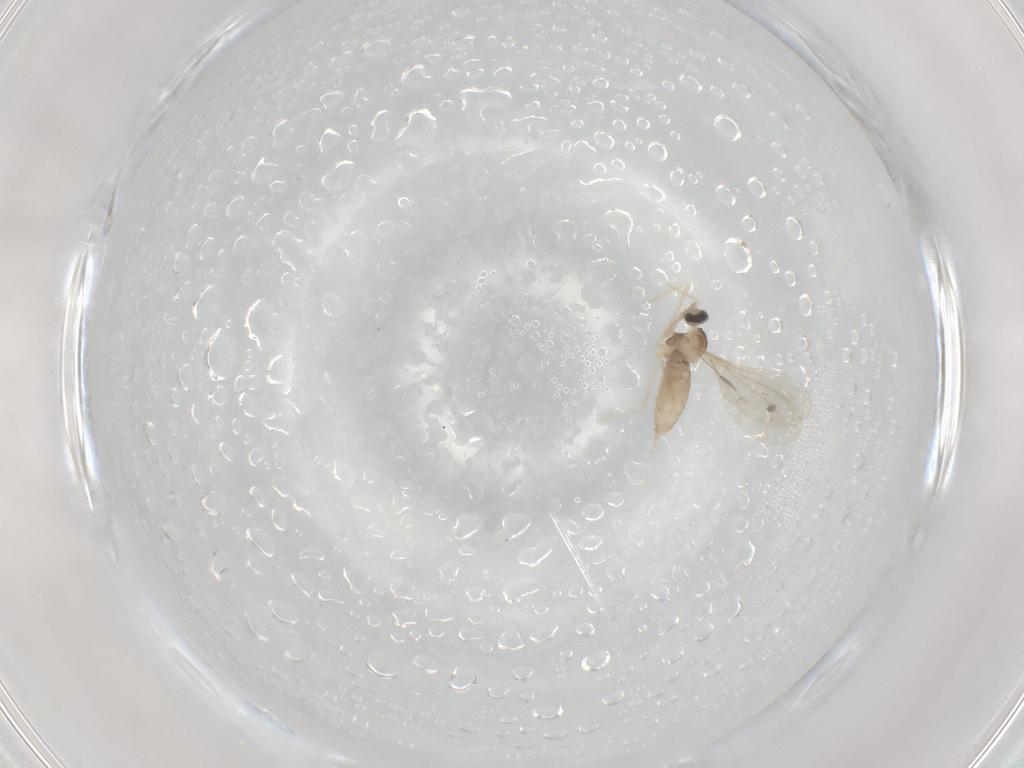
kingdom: Animalia
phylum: Arthropoda
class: Insecta
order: Diptera
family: Cecidomyiidae
